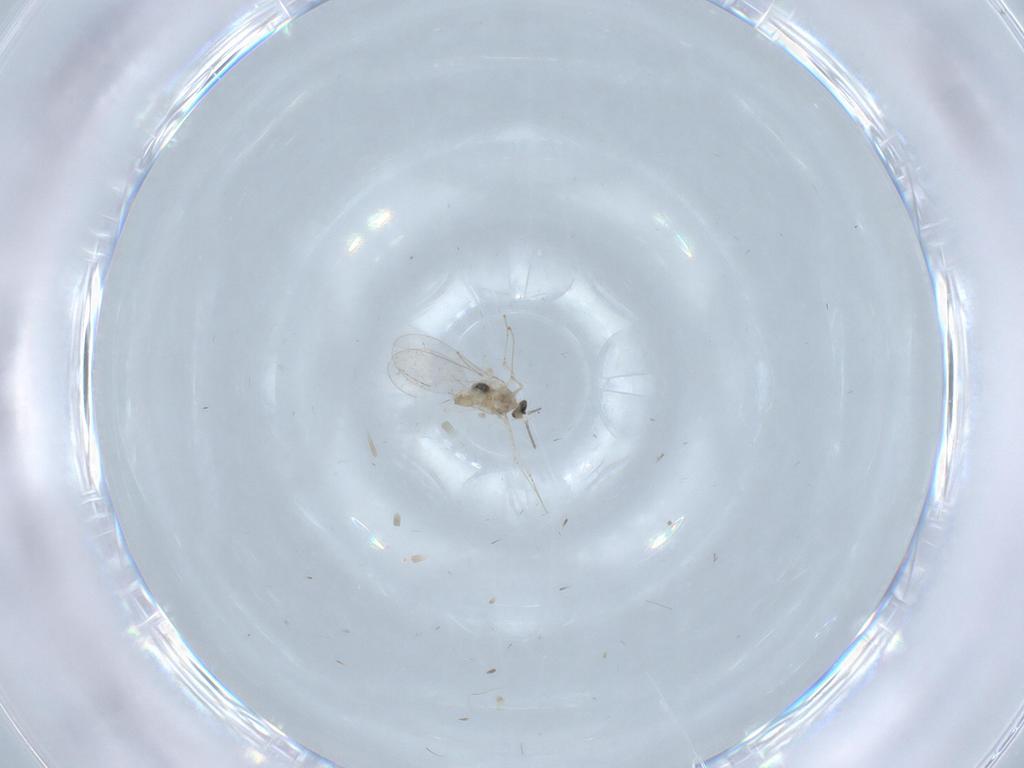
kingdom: Animalia
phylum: Arthropoda
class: Insecta
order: Diptera
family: Cecidomyiidae
